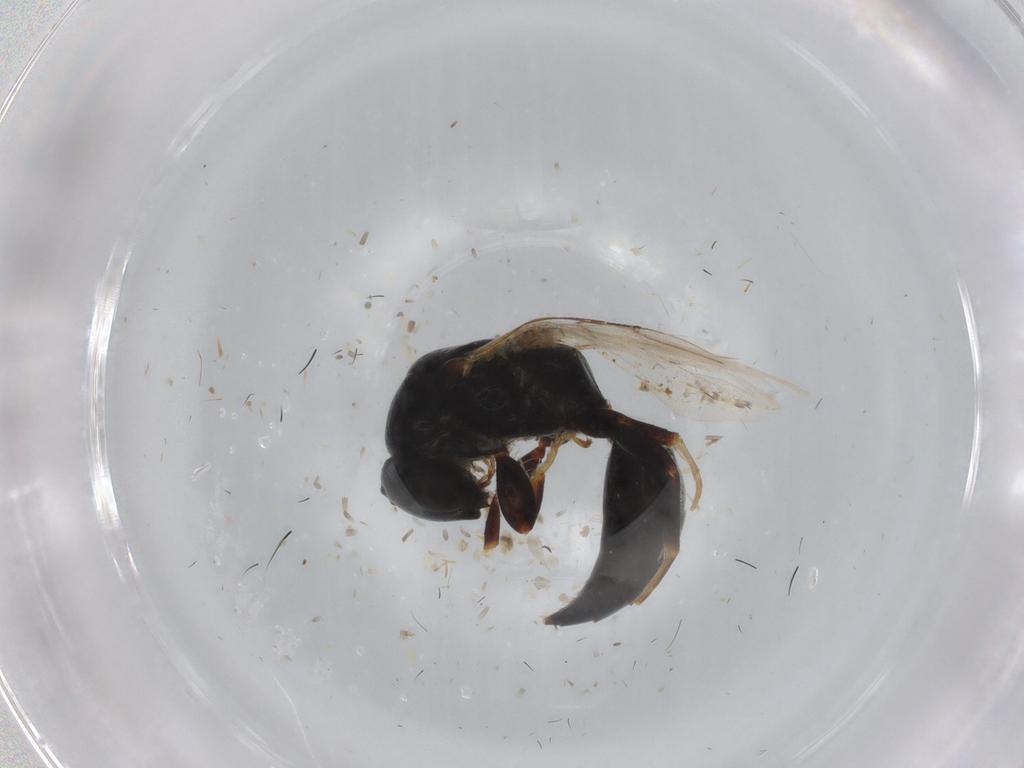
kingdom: Animalia
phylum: Arthropoda
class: Insecta
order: Hymenoptera
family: Bethylidae
